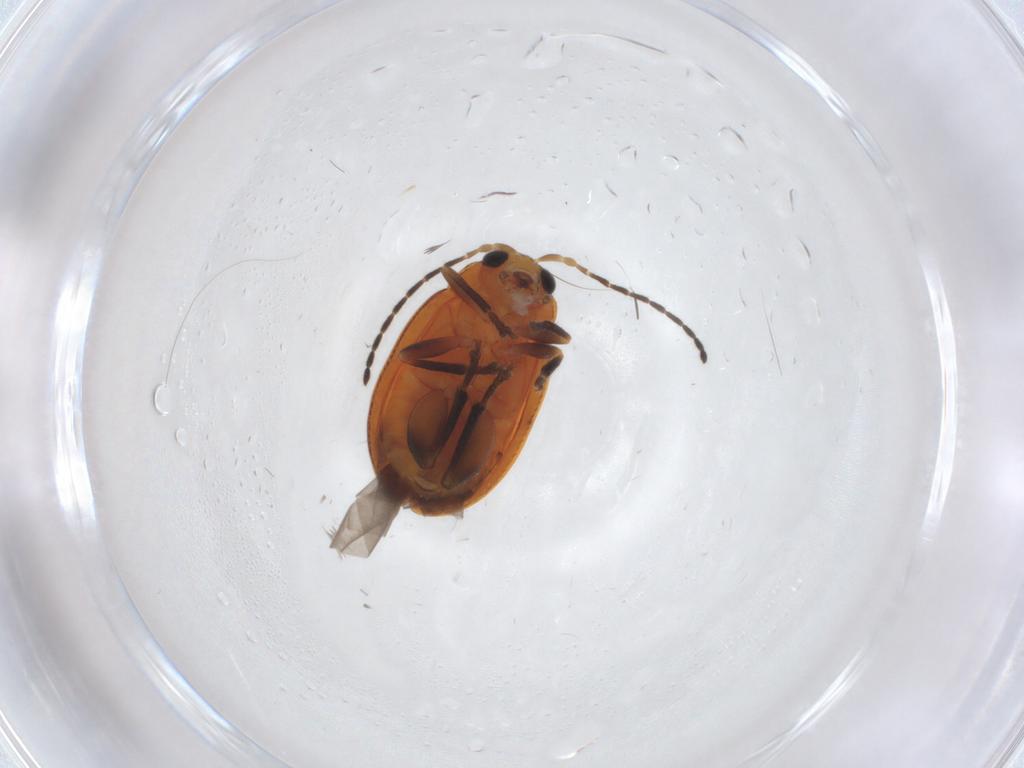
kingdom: Animalia
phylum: Arthropoda
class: Insecta
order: Coleoptera
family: Chrysomelidae
